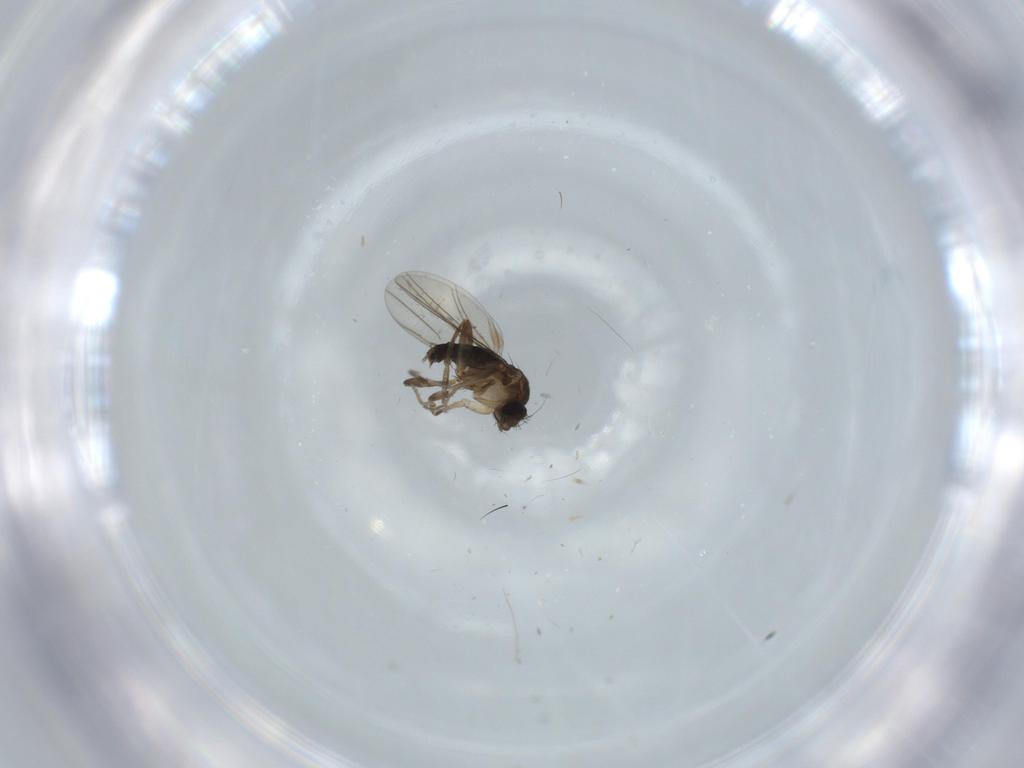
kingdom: Animalia
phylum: Arthropoda
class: Insecta
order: Diptera
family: Phoridae
